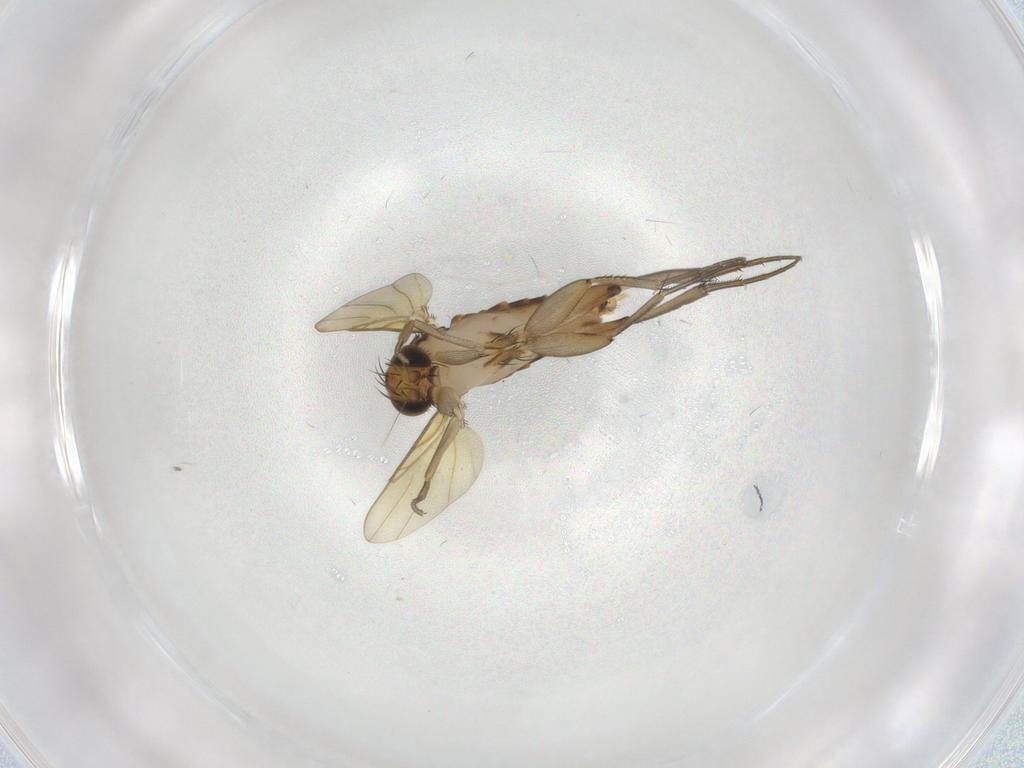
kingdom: Animalia
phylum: Arthropoda
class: Insecta
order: Diptera
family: Phoridae
